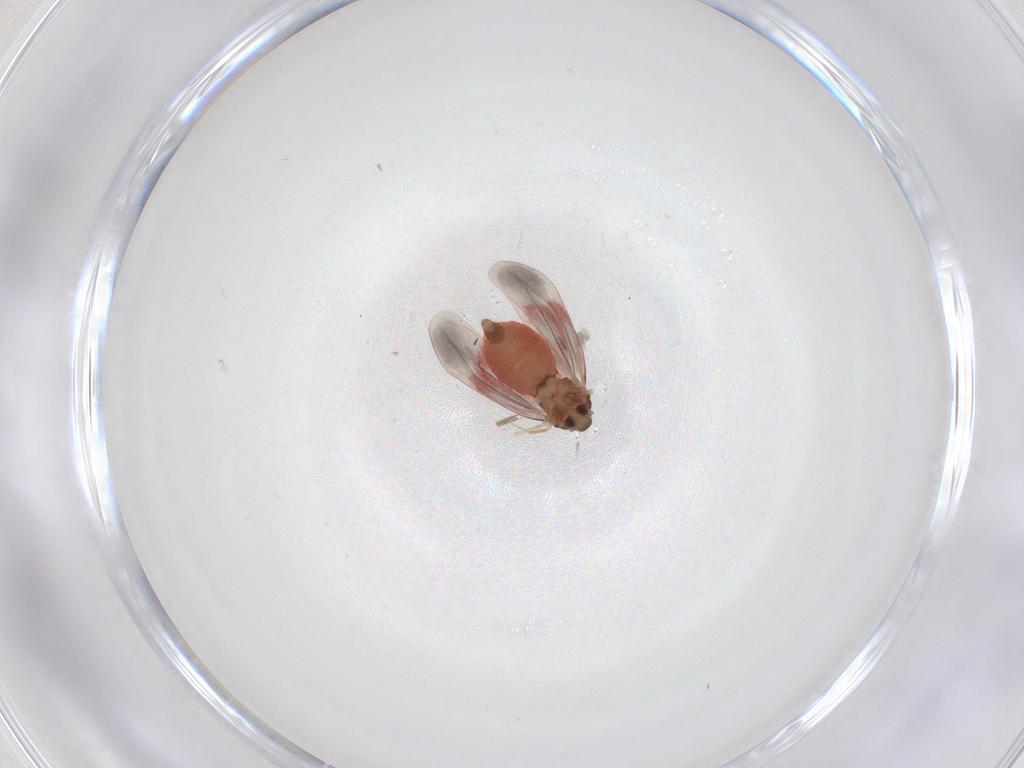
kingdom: Animalia
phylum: Arthropoda
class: Insecta
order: Hemiptera
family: Aleyrodidae
